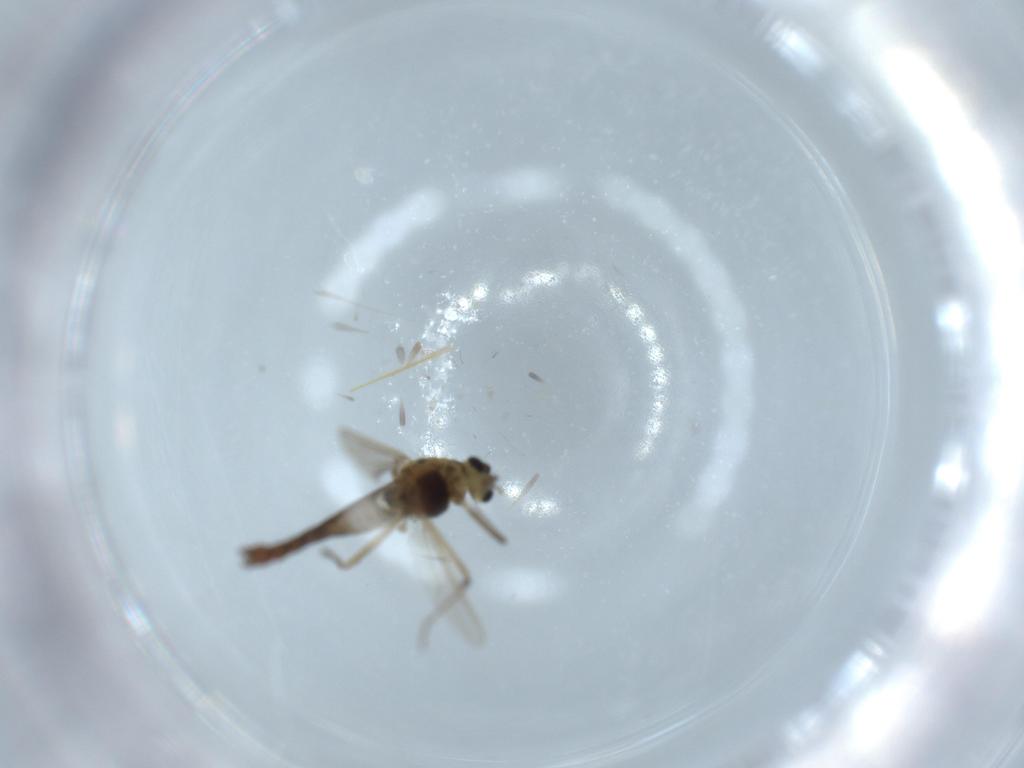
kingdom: Animalia
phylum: Arthropoda
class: Insecta
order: Diptera
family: Chironomidae
